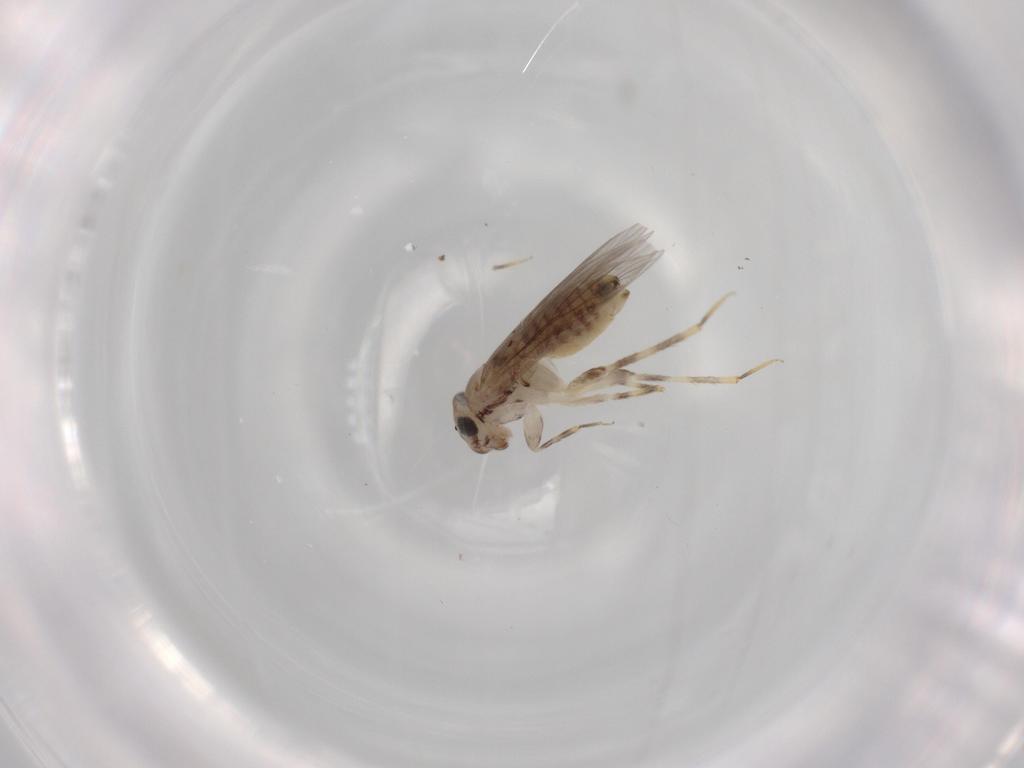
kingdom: Animalia
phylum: Arthropoda
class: Insecta
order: Psocodea
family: Lepidopsocidae
